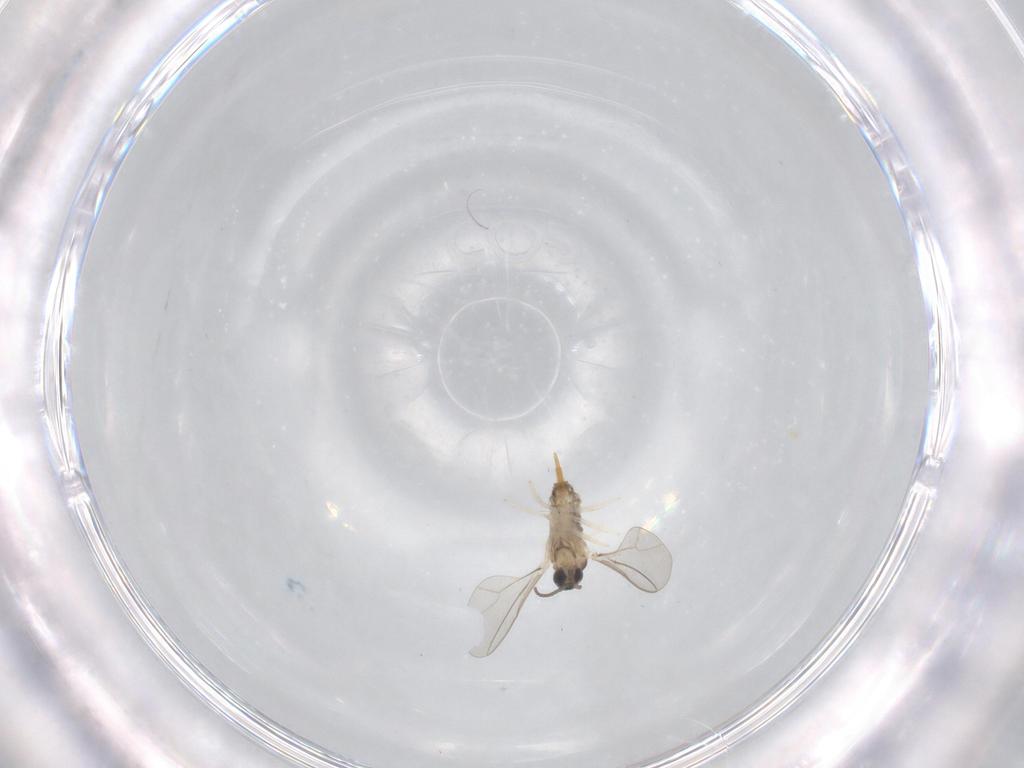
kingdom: Animalia
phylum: Arthropoda
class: Insecta
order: Diptera
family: Cecidomyiidae
